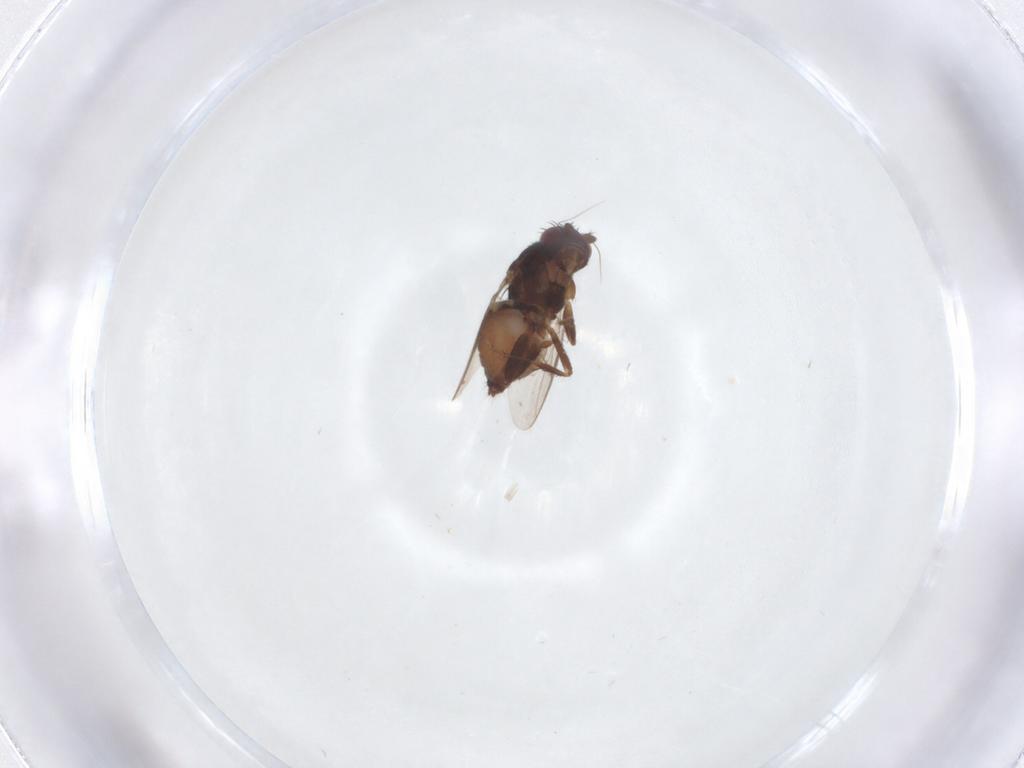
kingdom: Animalia
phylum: Arthropoda
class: Insecta
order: Diptera
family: Sphaeroceridae
